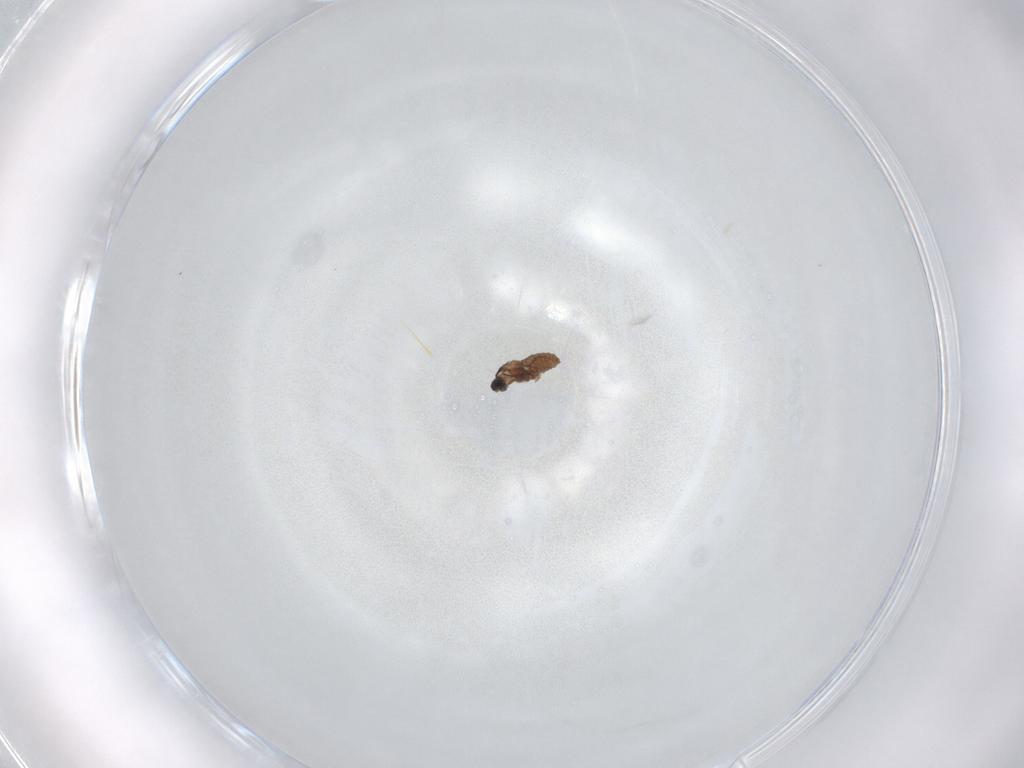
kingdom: Animalia
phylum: Arthropoda
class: Insecta
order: Diptera
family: Cecidomyiidae
